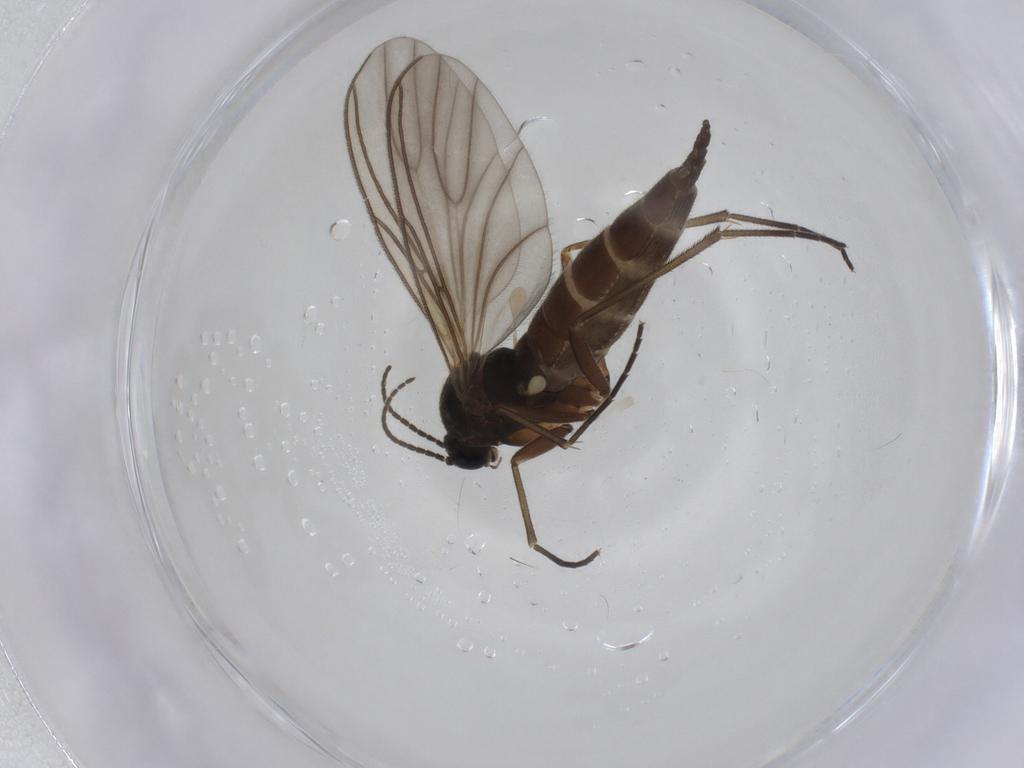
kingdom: Animalia
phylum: Arthropoda
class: Insecta
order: Diptera
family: Sciaridae
